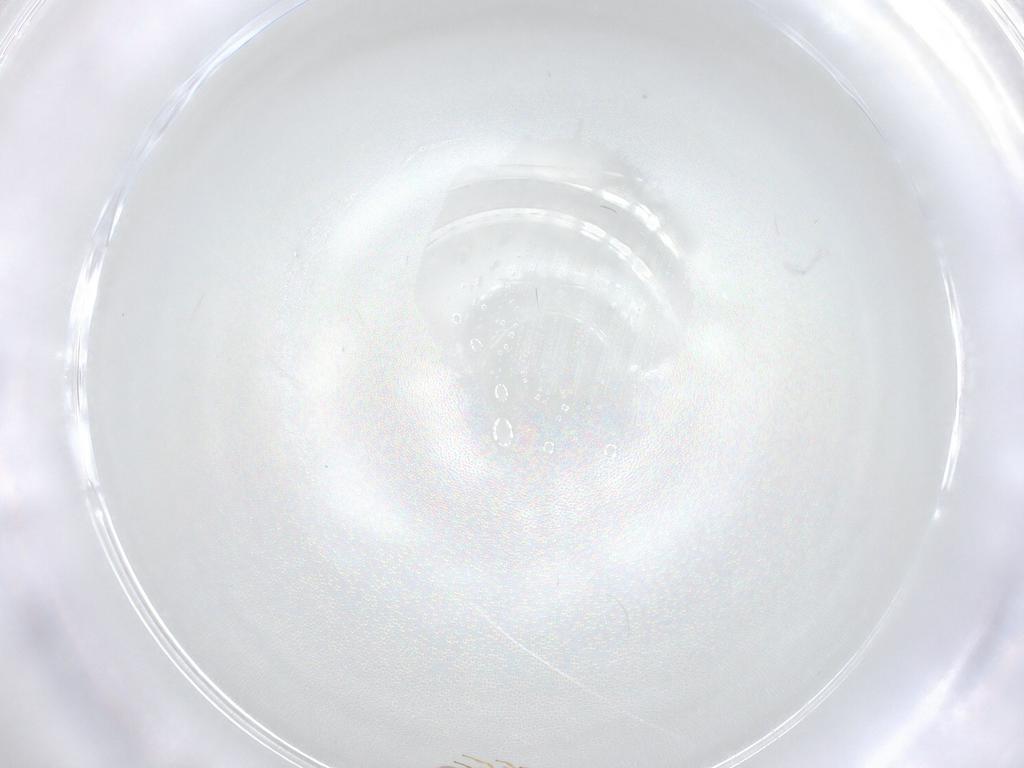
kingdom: Animalia
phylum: Arthropoda
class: Insecta
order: Hymenoptera
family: Platygastridae
